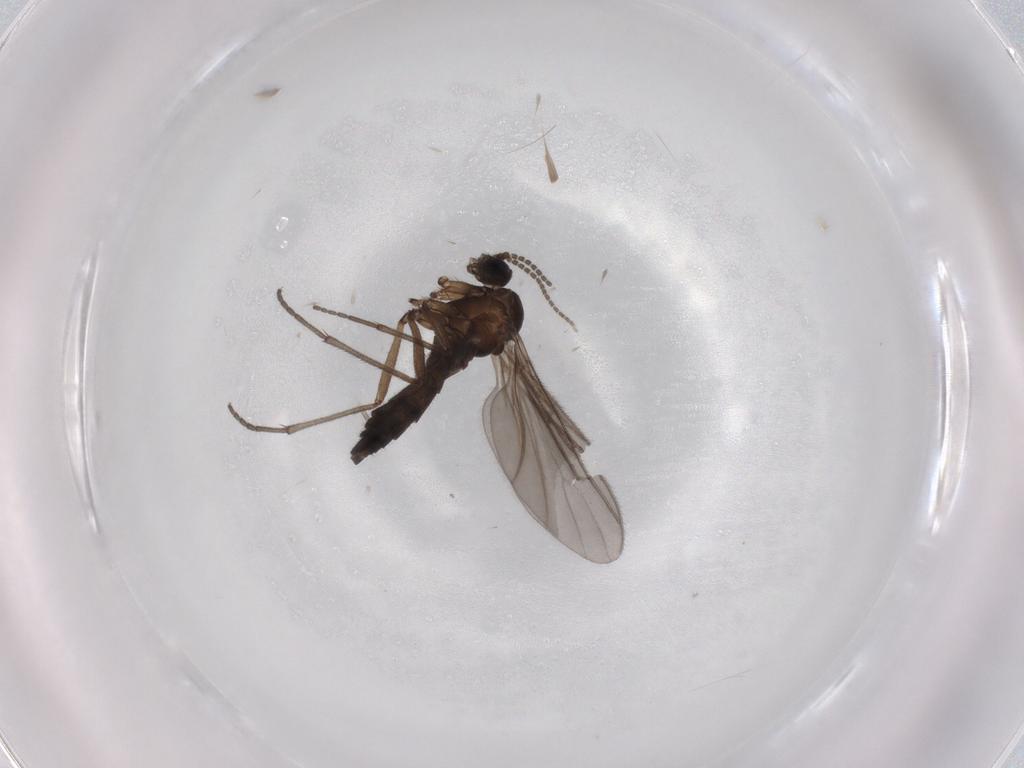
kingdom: Animalia
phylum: Arthropoda
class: Insecta
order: Diptera
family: Sciaridae
